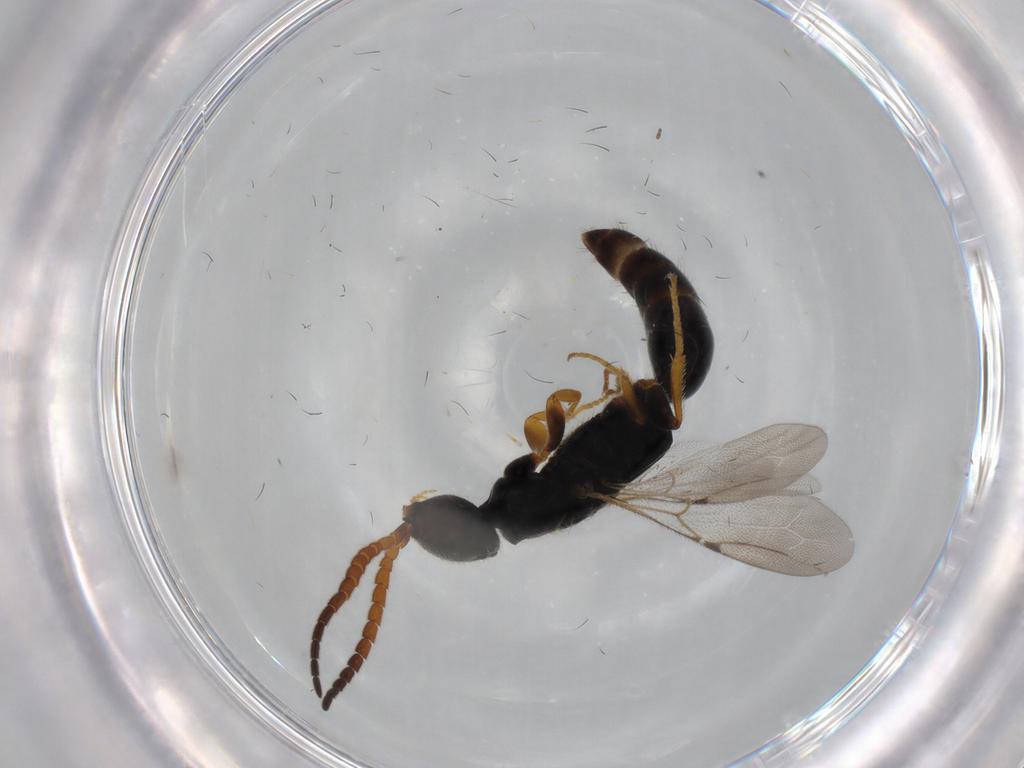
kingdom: Animalia
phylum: Arthropoda
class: Insecta
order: Hymenoptera
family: Bethylidae
